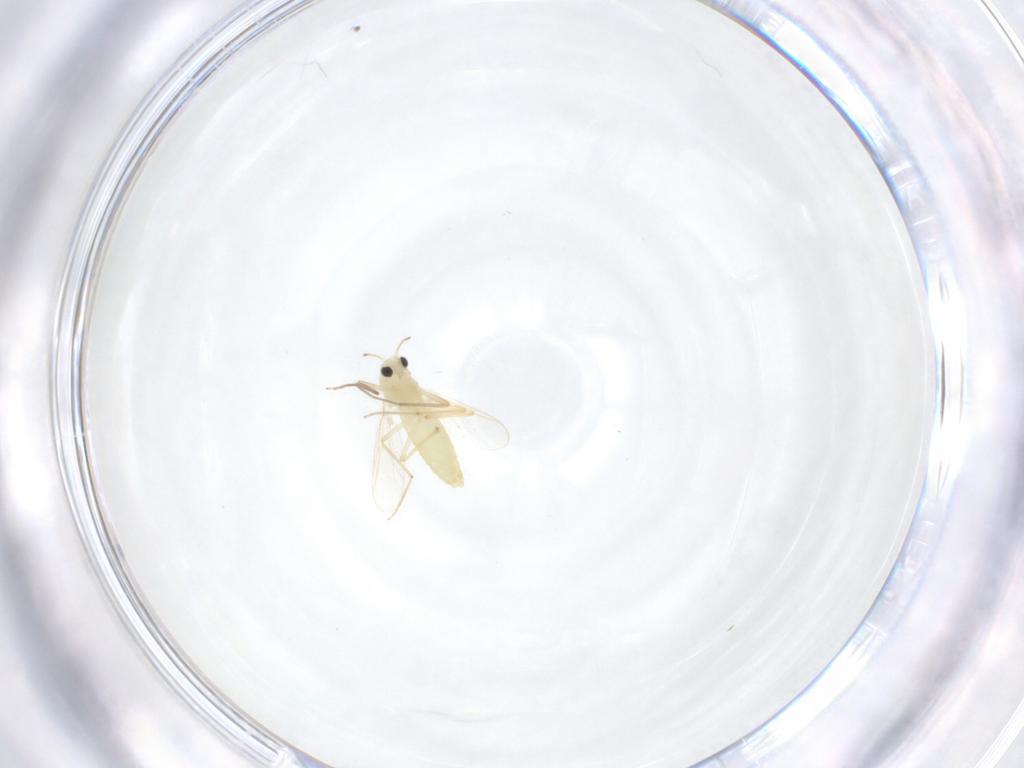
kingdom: Animalia
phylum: Arthropoda
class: Insecta
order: Diptera
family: Chironomidae
